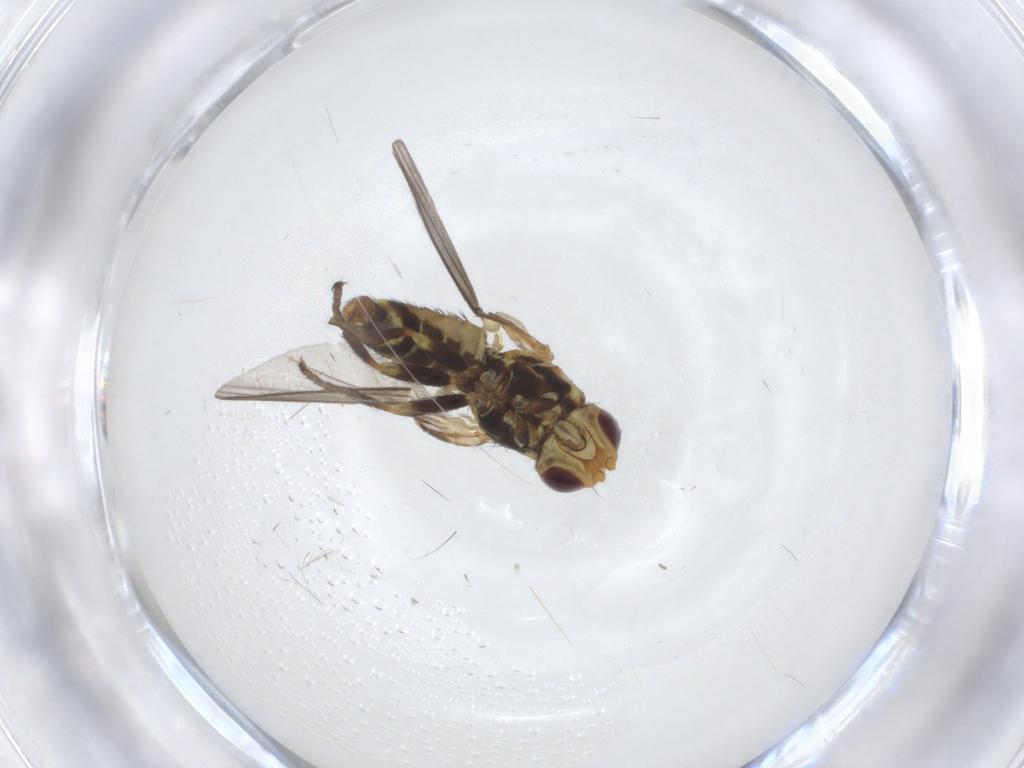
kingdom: Animalia
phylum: Arthropoda
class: Insecta
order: Diptera
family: Agromyzidae
